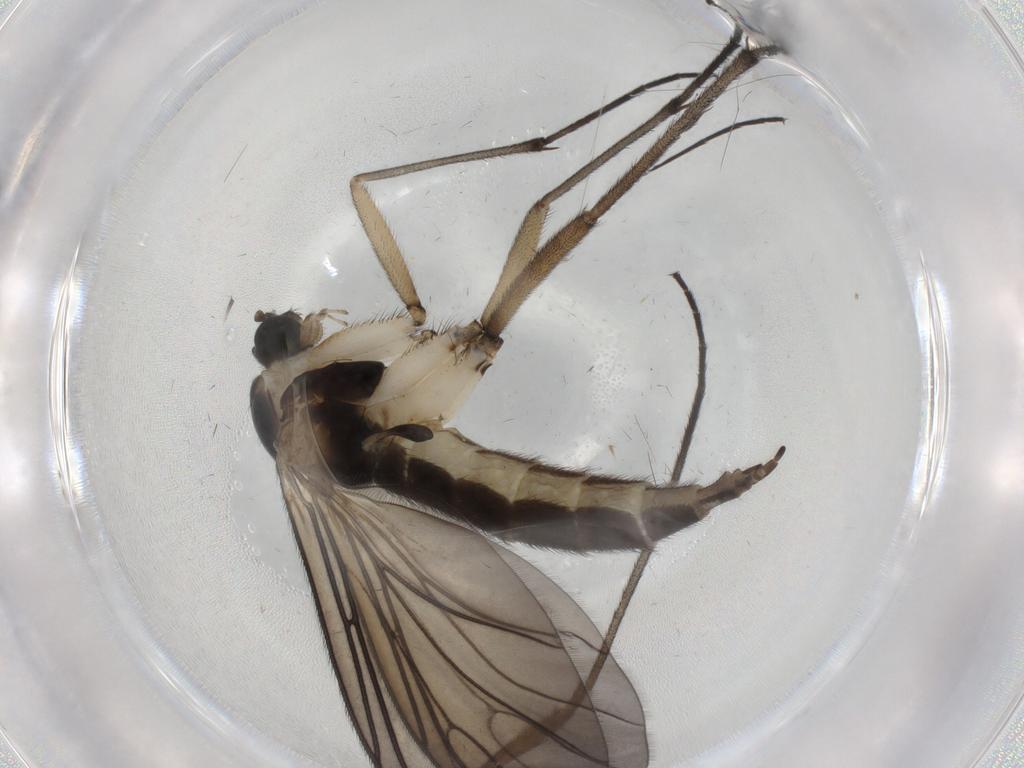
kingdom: Animalia
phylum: Arthropoda
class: Insecta
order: Diptera
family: Sciaridae
